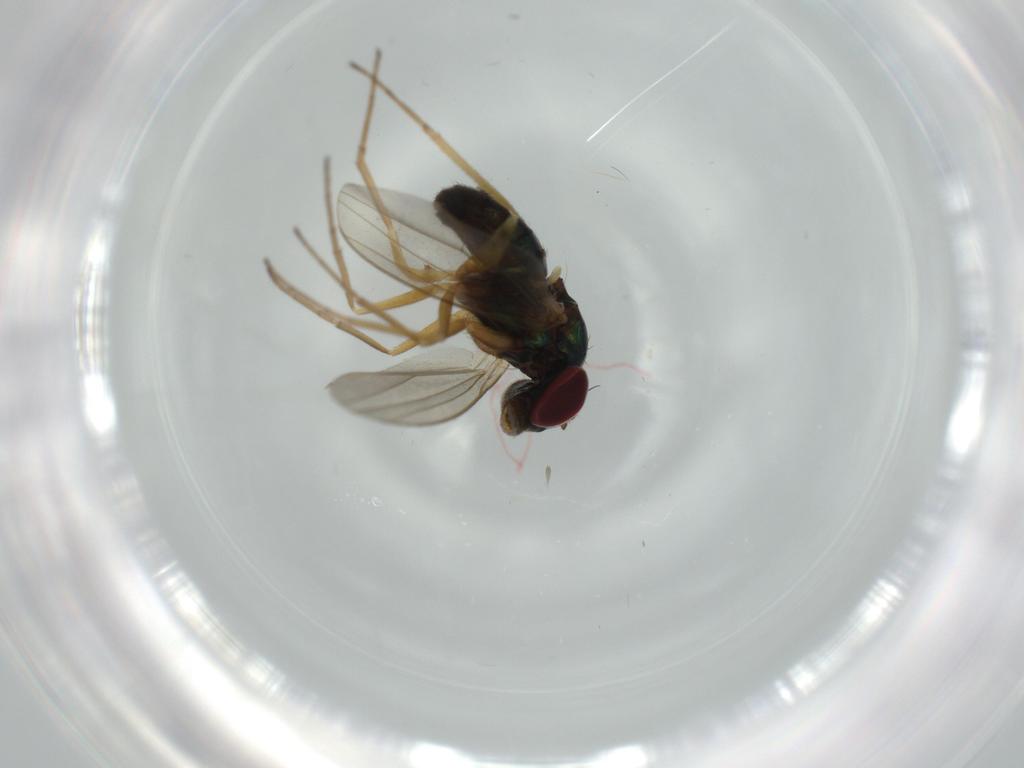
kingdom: Animalia
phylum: Arthropoda
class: Insecta
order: Diptera
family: Dolichopodidae
